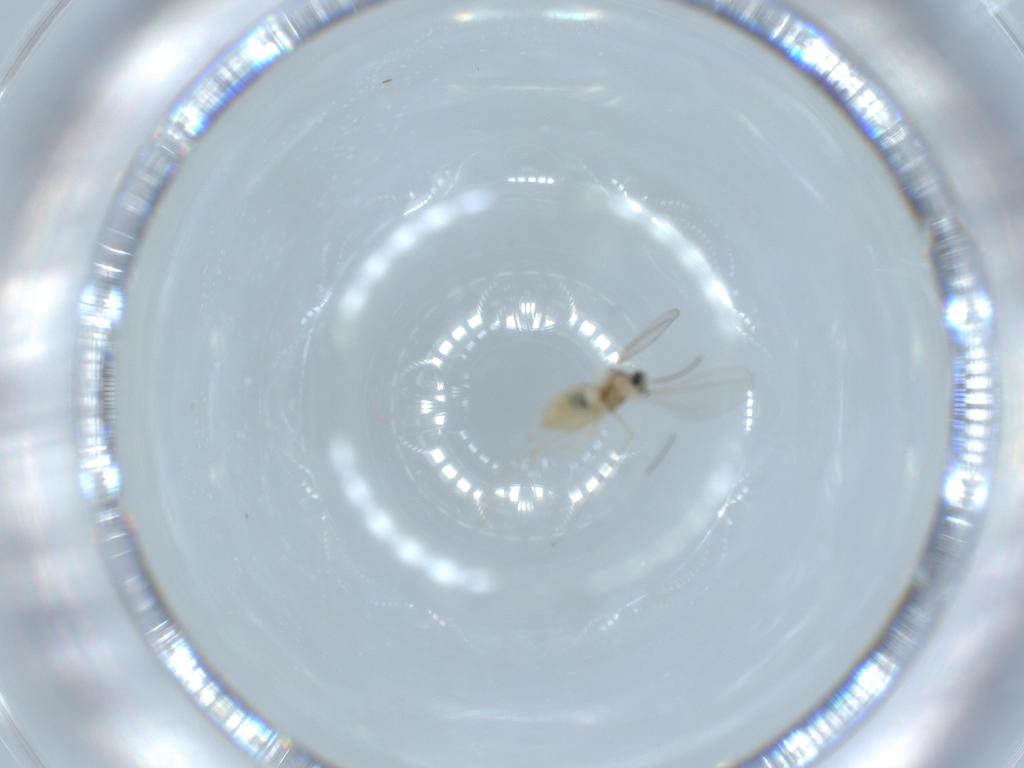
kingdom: Animalia
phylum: Arthropoda
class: Insecta
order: Diptera
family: Cecidomyiidae
